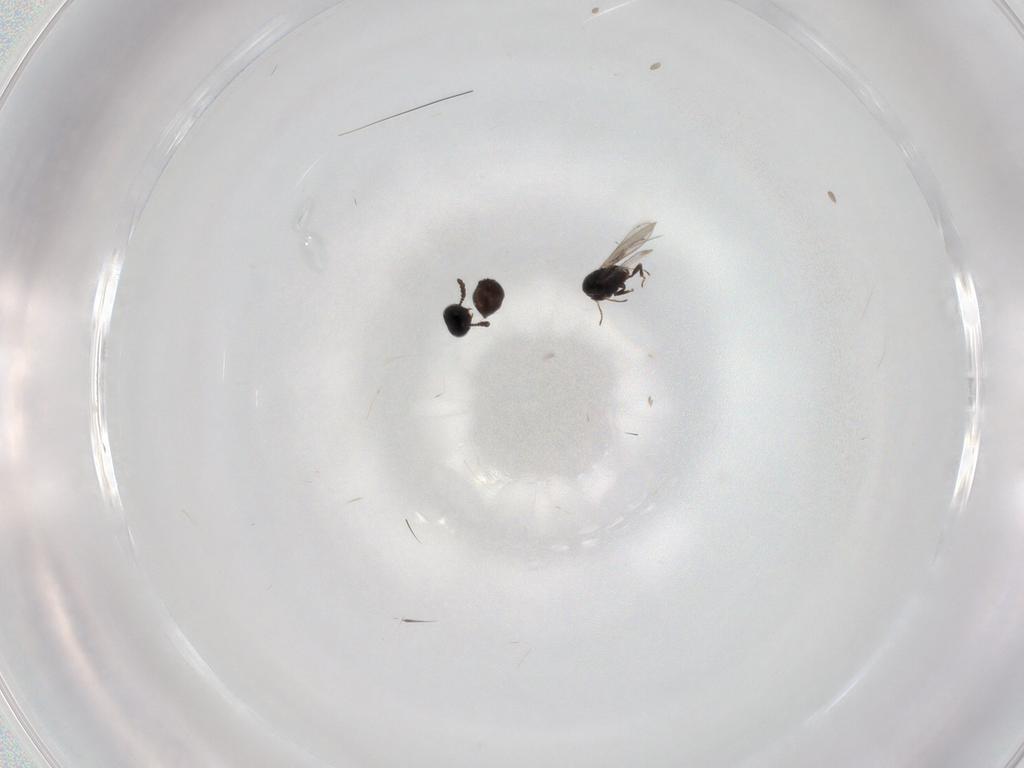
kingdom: Animalia
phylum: Arthropoda
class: Insecta
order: Hymenoptera
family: Scelionidae
